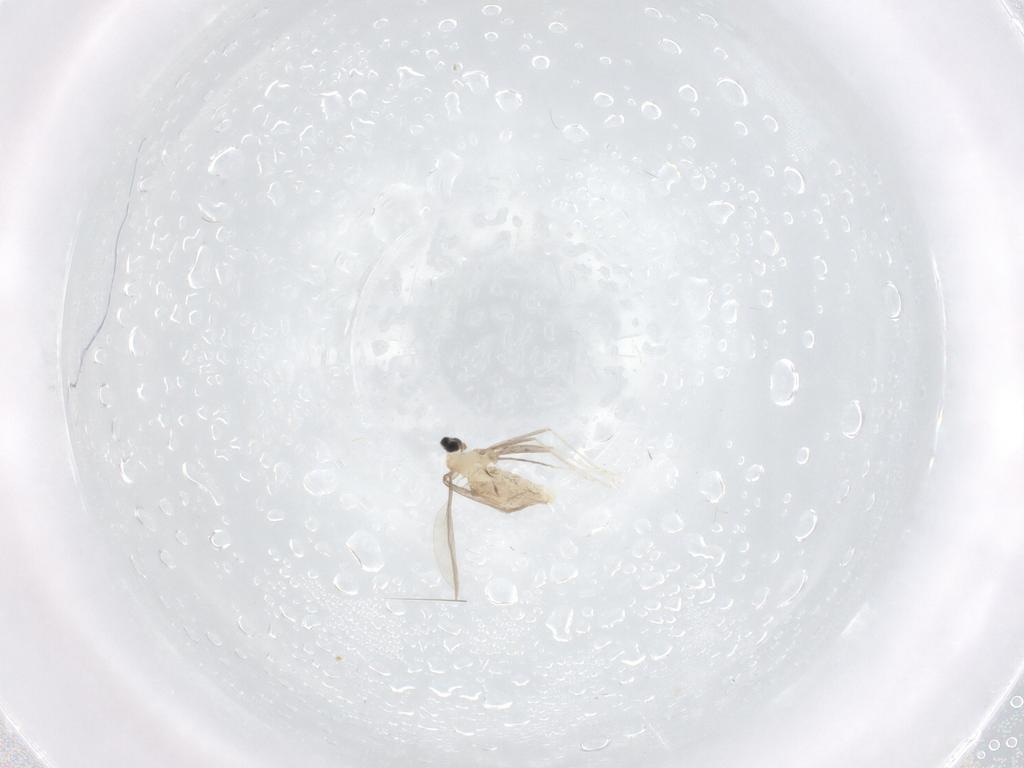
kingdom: Animalia
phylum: Arthropoda
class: Insecta
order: Diptera
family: Cecidomyiidae
